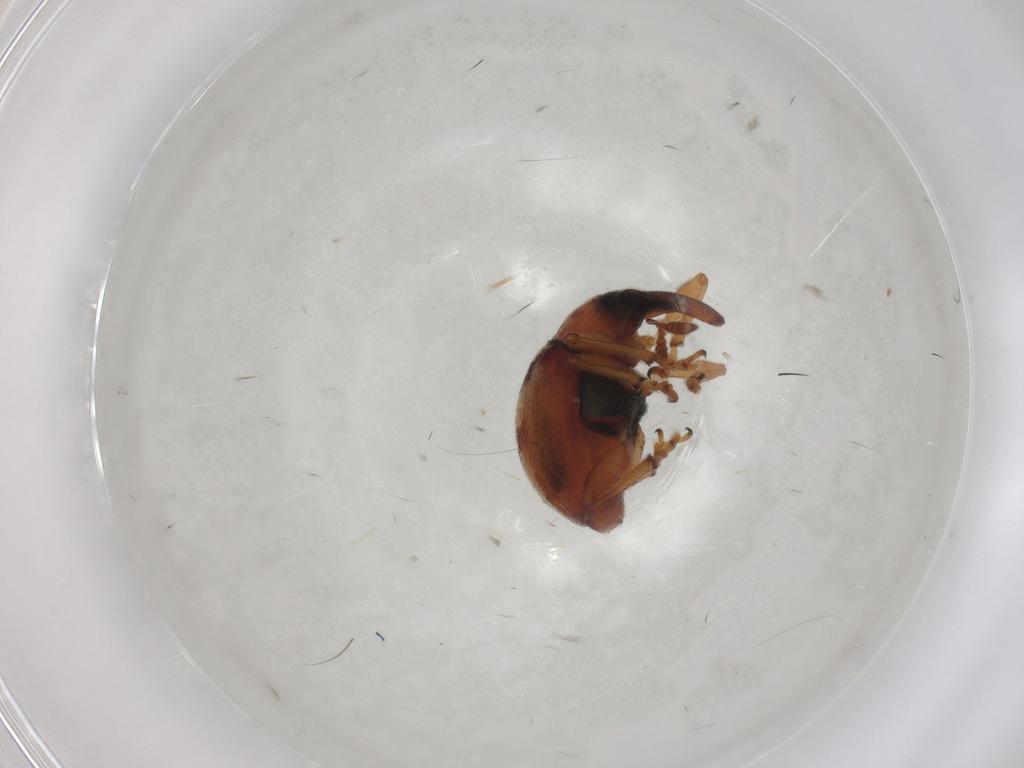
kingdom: Animalia
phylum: Arthropoda
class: Insecta
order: Coleoptera
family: Brentidae
